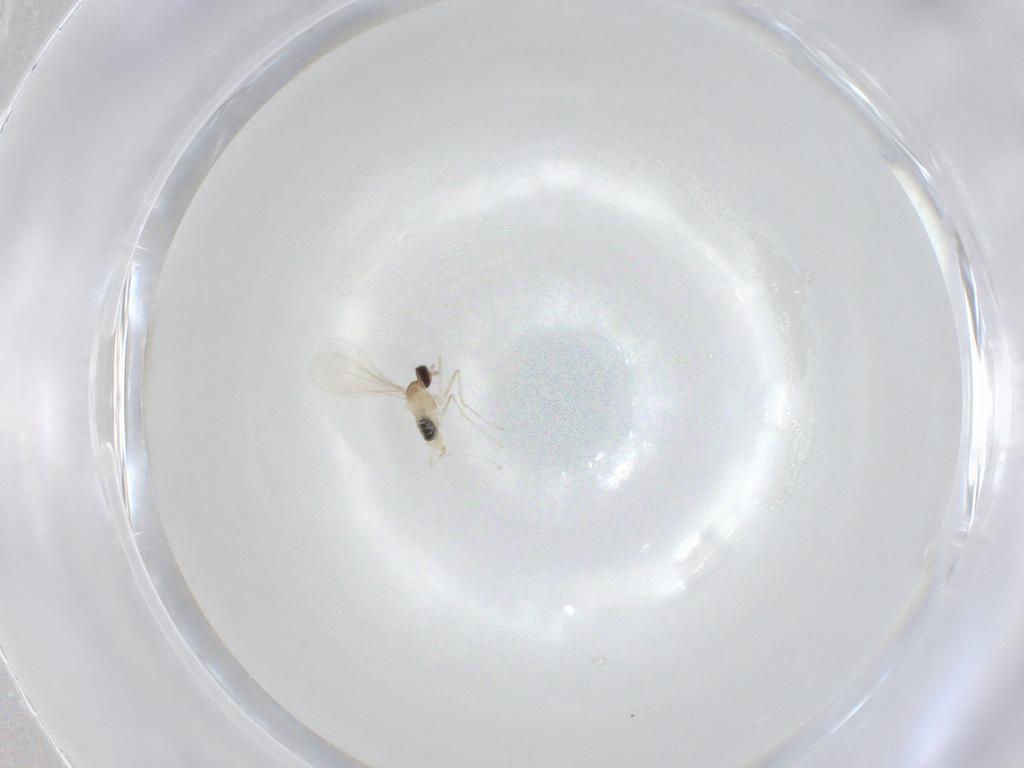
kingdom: Animalia
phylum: Arthropoda
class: Insecta
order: Diptera
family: Cecidomyiidae
